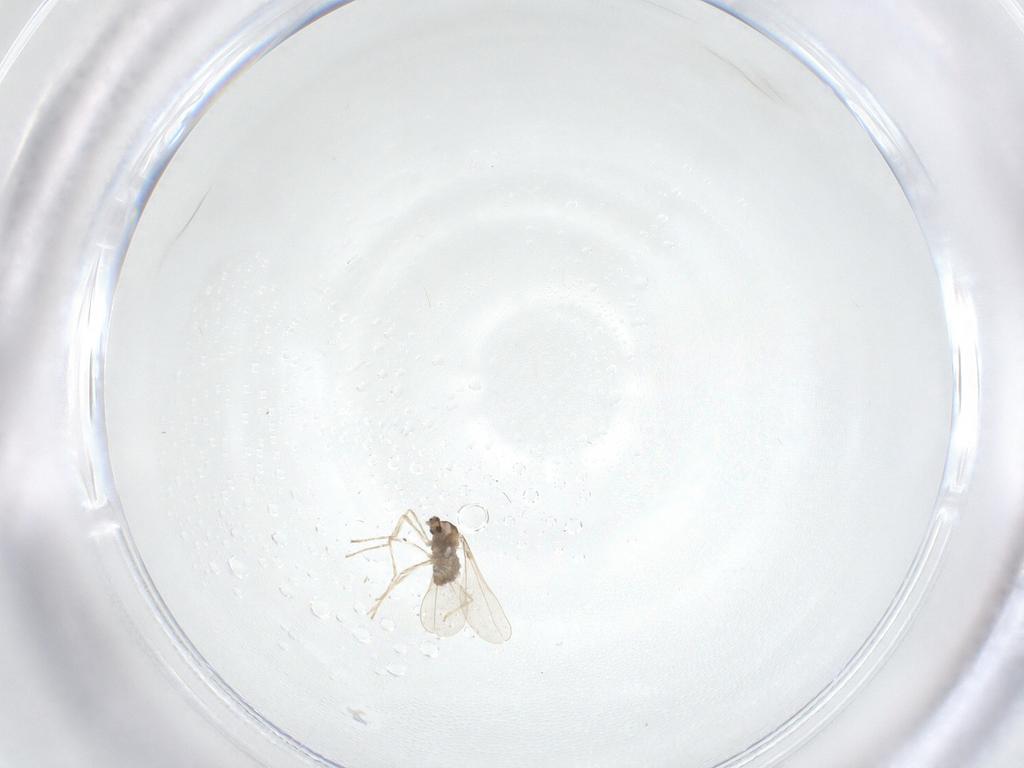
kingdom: Animalia
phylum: Arthropoda
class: Insecta
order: Diptera
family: Cecidomyiidae
